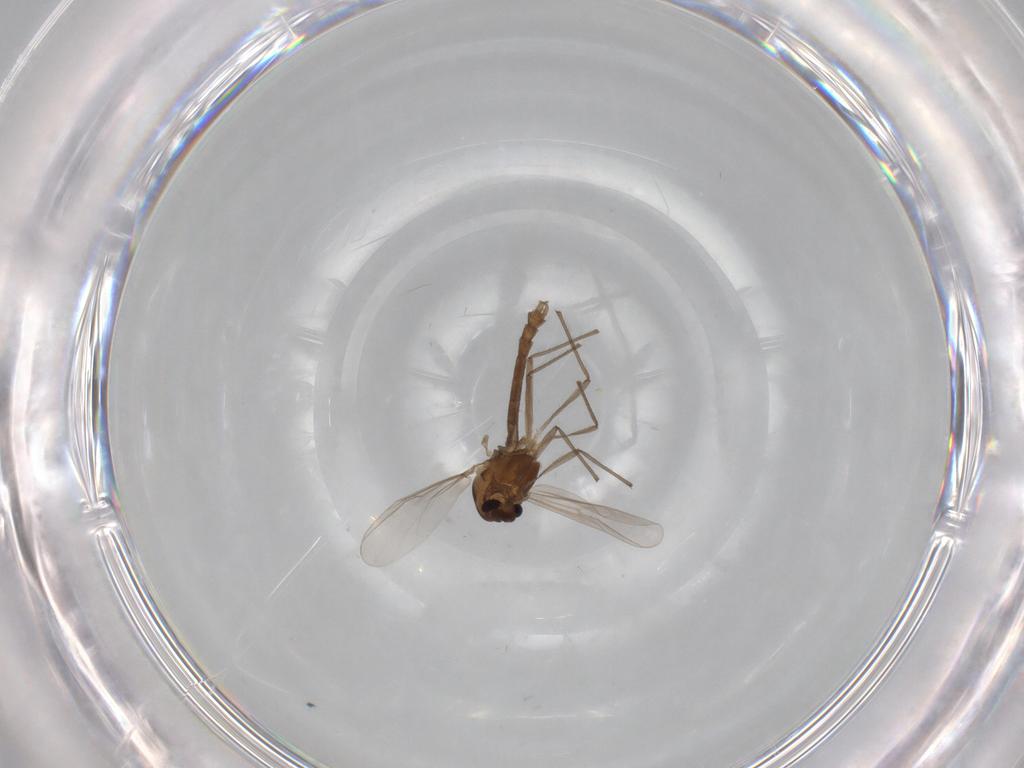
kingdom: Animalia
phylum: Arthropoda
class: Insecta
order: Diptera
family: Chironomidae
